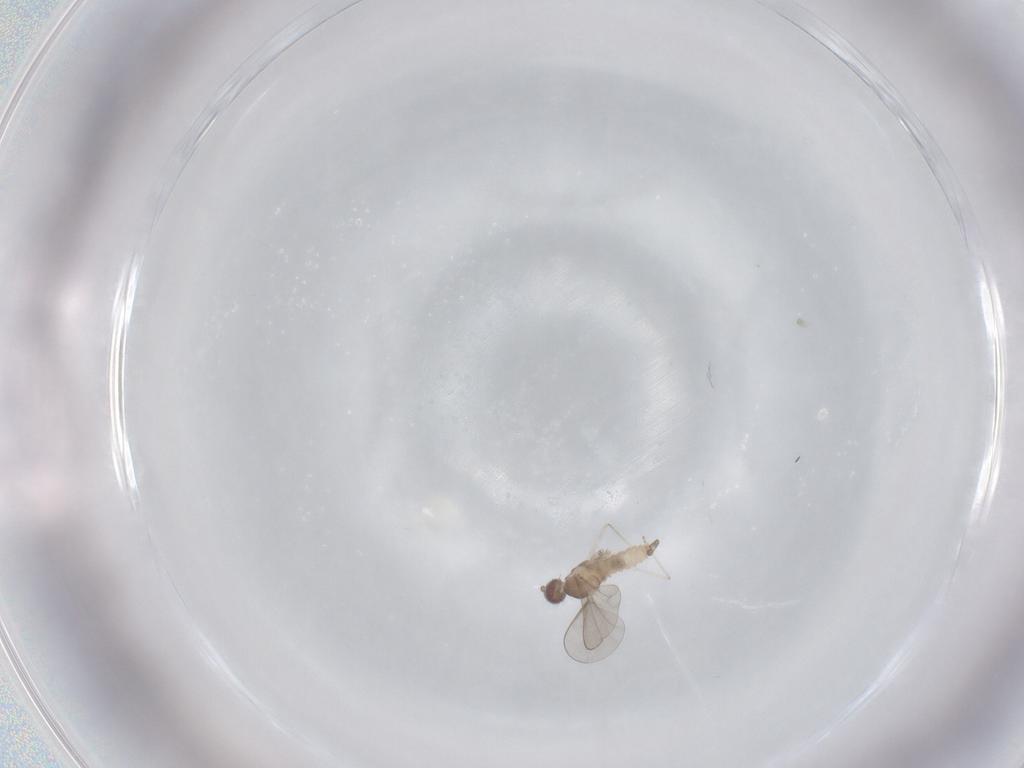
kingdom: Animalia
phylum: Arthropoda
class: Insecta
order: Diptera
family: Cecidomyiidae
